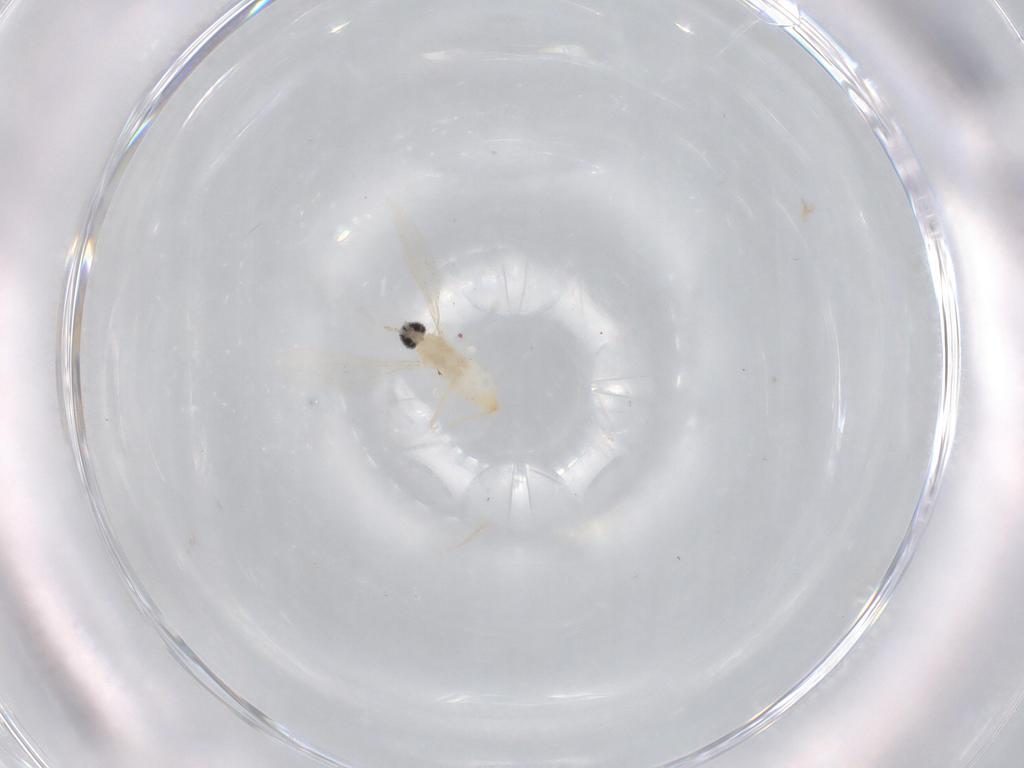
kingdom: Animalia
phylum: Arthropoda
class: Insecta
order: Diptera
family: Cecidomyiidae
